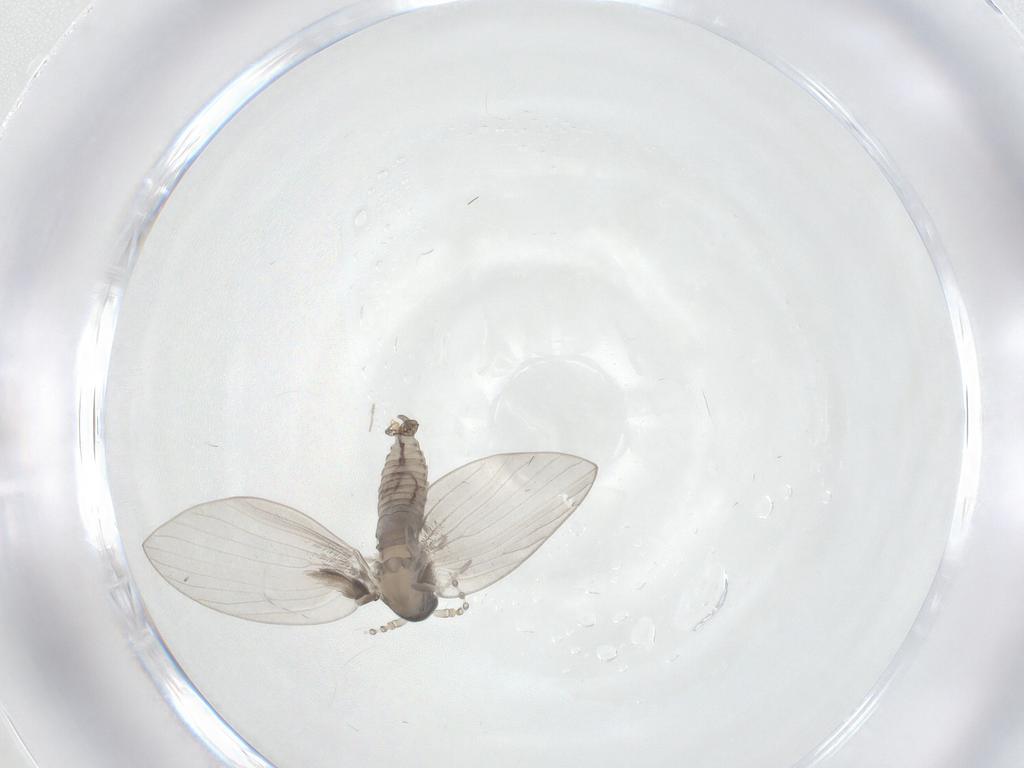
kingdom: Animalia
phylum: Arthropoda
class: Insecta
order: Diptera
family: Psychodidae
